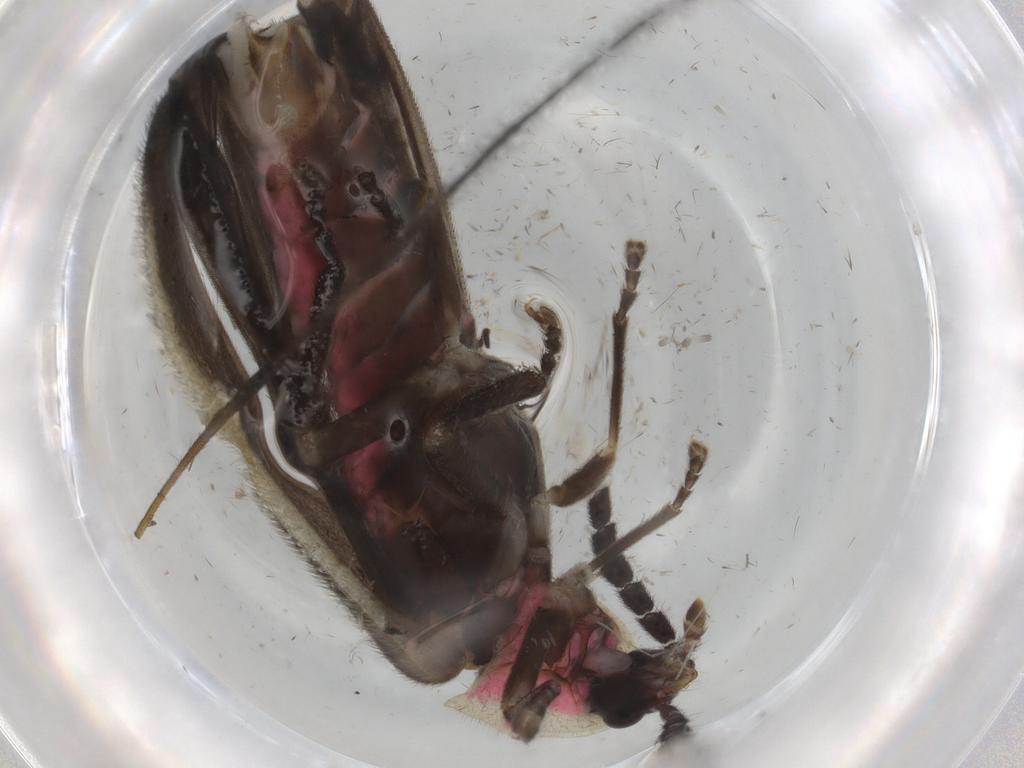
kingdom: Animalia
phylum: Arthropoda
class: Insecta
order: Coleoptera
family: Lampyridae
